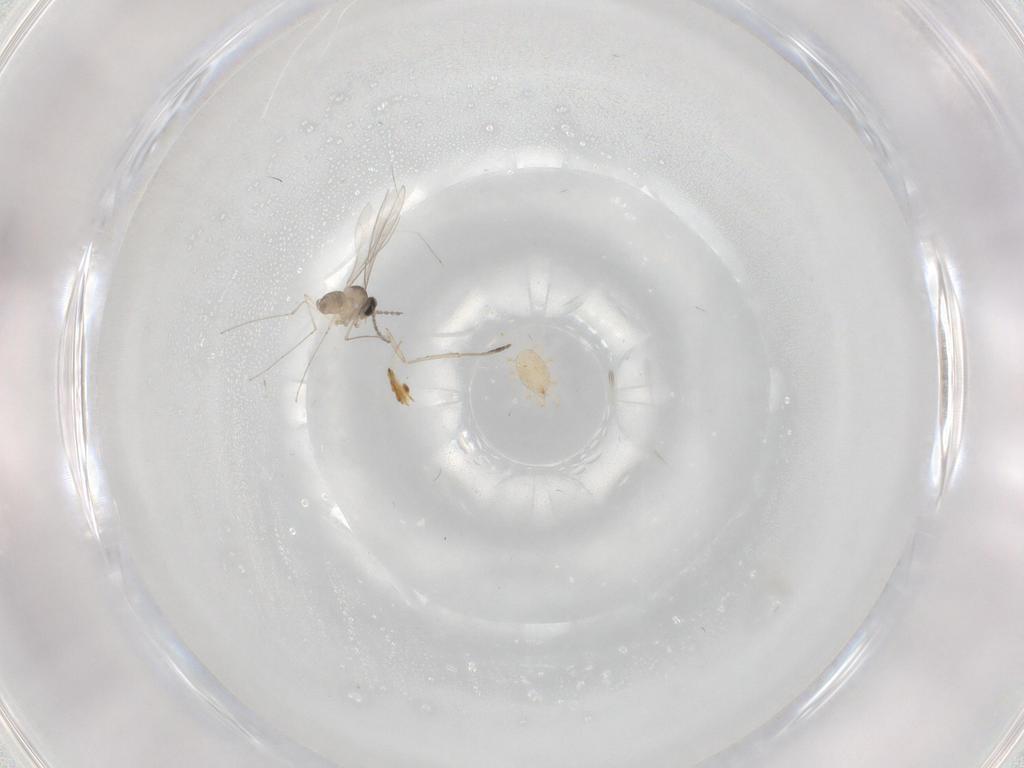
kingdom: Animalia
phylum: Arthropoda
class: Insecta
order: Diptera
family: Cecidomyiidae
